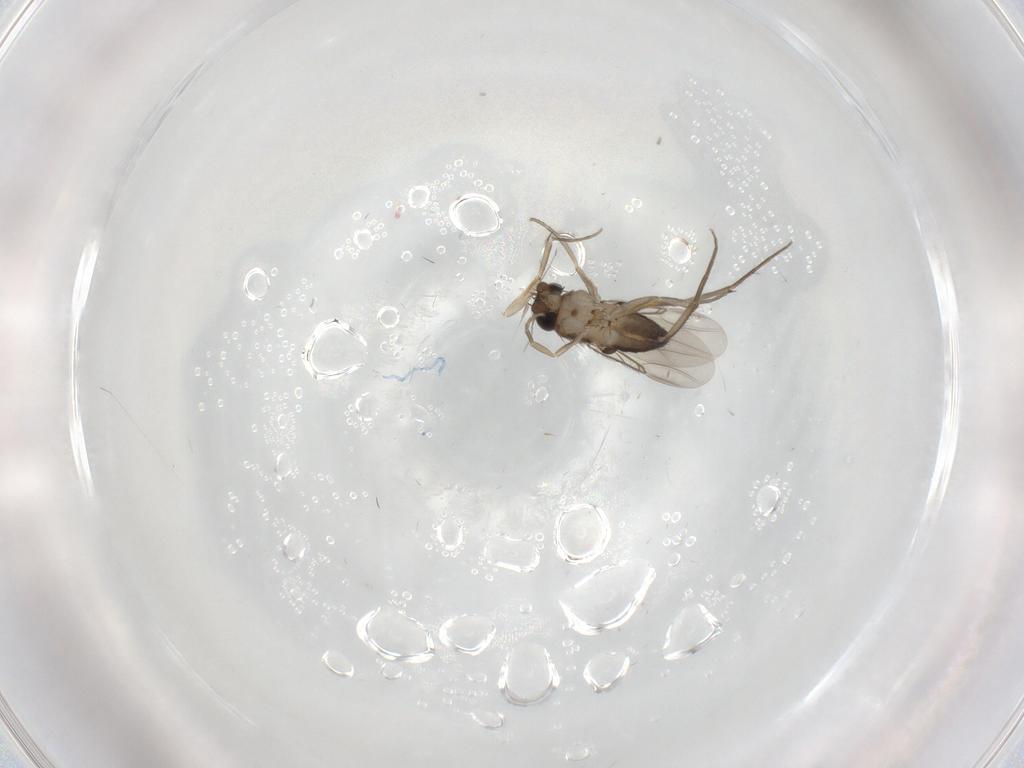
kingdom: Animalia
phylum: Arthropoda
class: Insecta
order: Diptera
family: Phoridae
